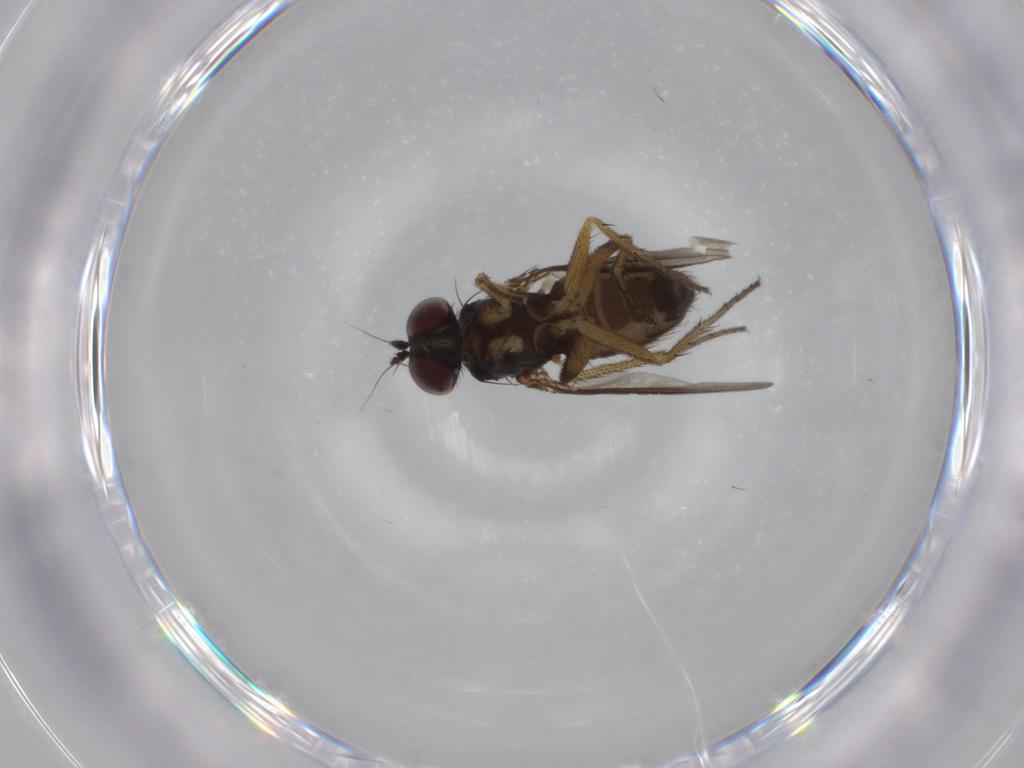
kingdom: Animalia
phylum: Arthropoda
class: Insecta
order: Diptera
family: Dolichopodidae
